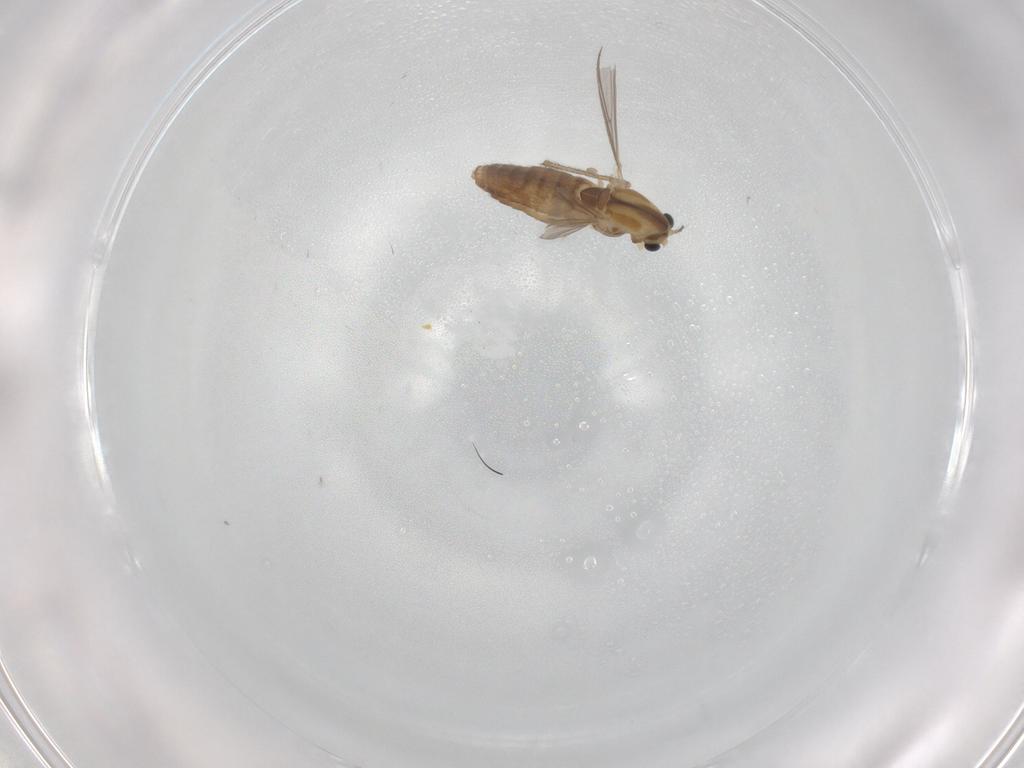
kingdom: Animalia
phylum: Arthropoda
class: Insecta
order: Diptera
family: Chironomidae
